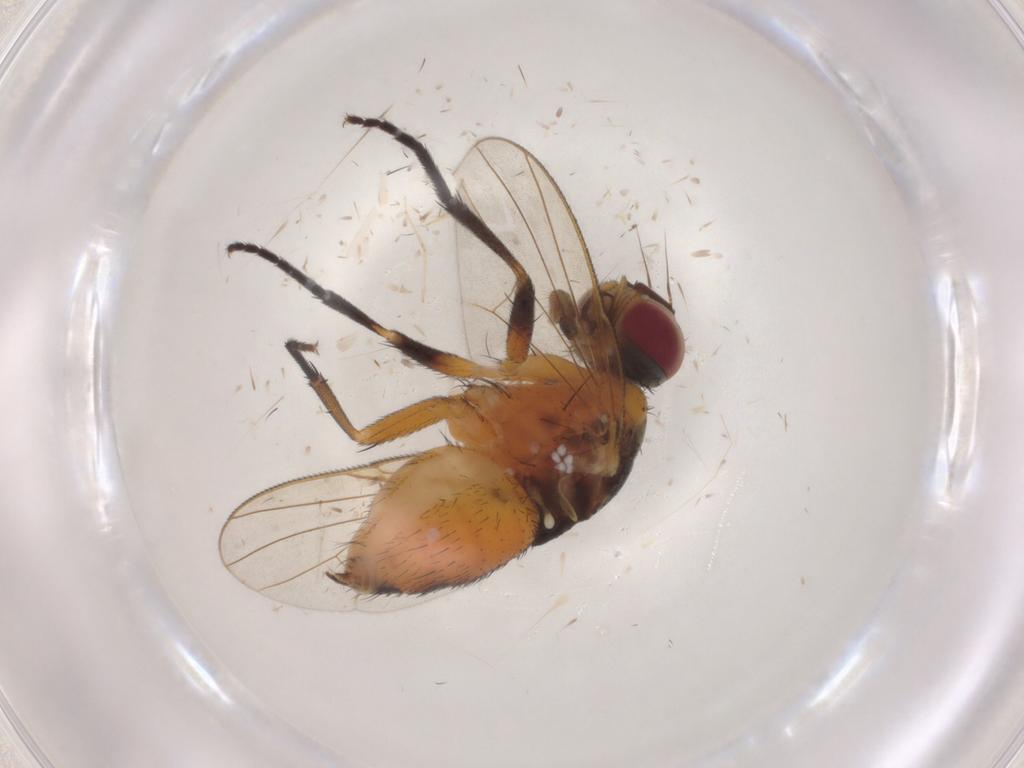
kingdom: Animalia
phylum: Arthropoda
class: Insecta
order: Diptera
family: Muscidae
